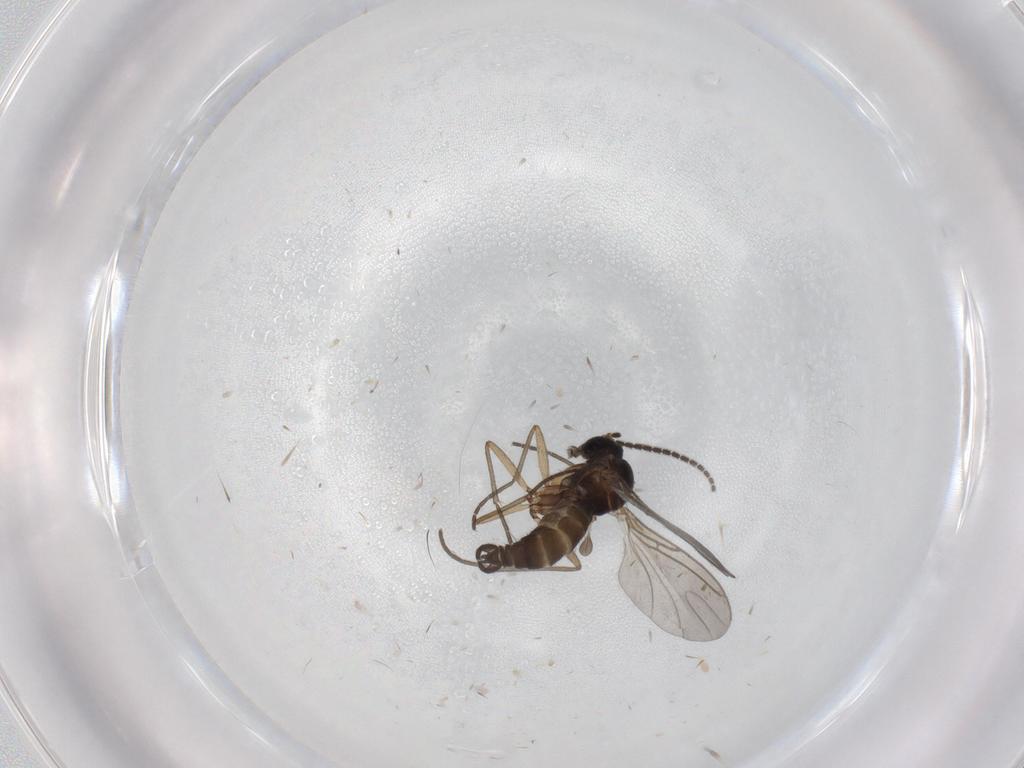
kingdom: Animalia
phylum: Arthropoda
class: Insecta
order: Diptera
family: Sciaridae
